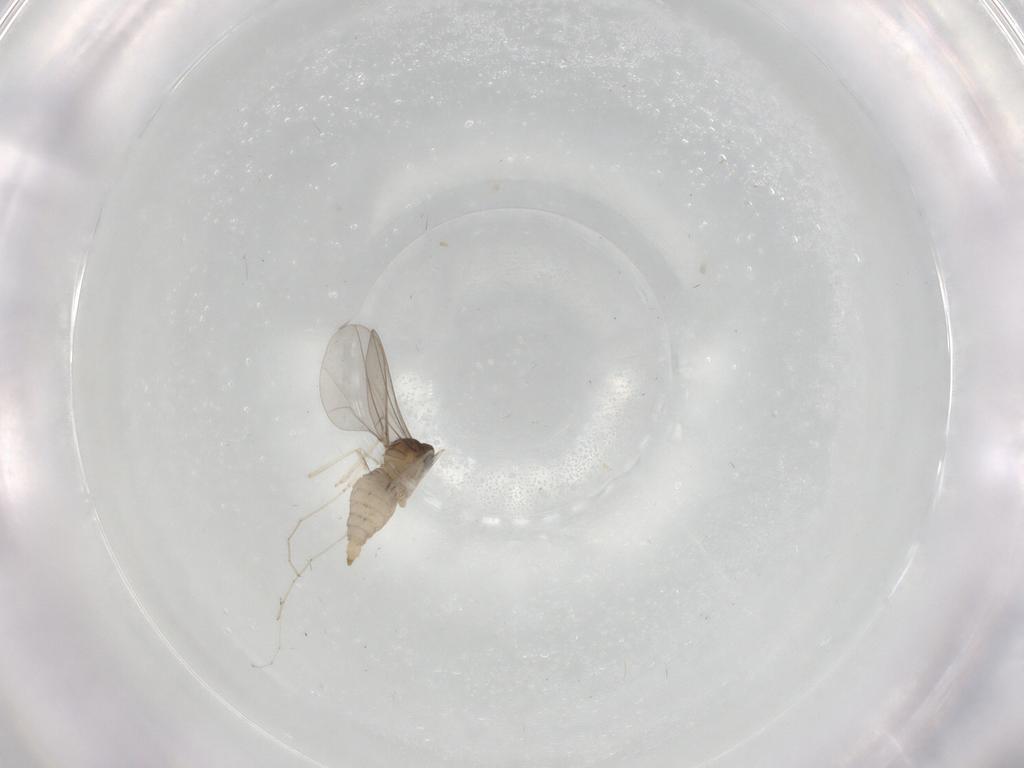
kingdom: Animalia
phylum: Arthropoda
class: Insecta
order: Diptera
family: Cecidomyiidae
